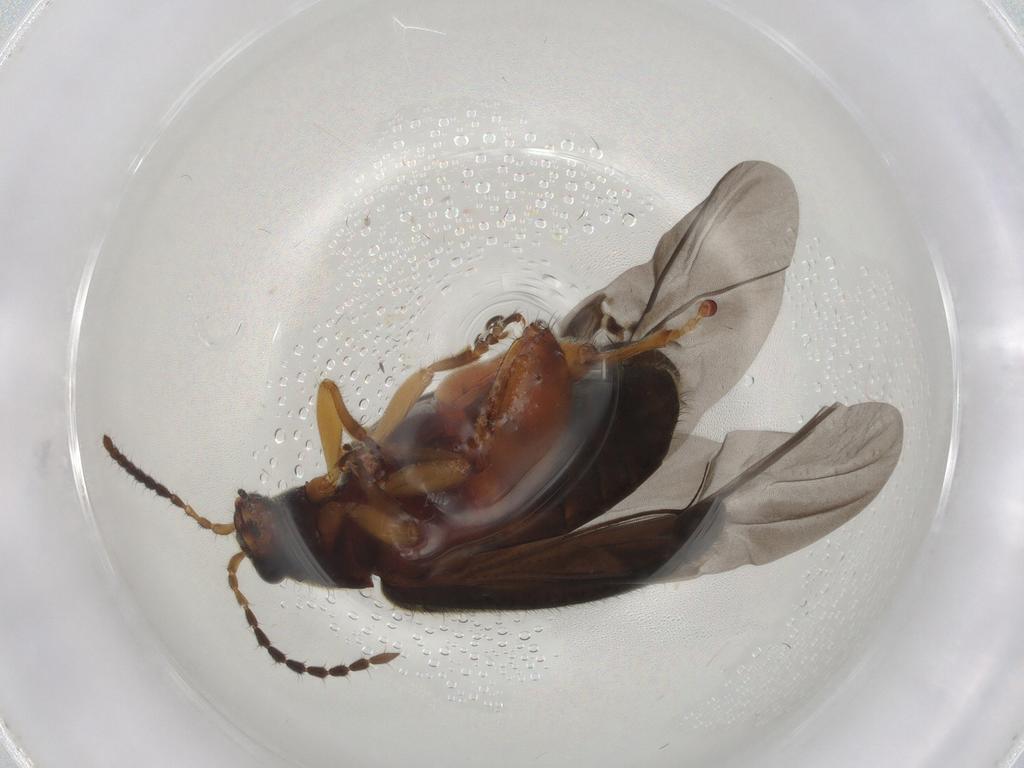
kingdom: Animalia
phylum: Arthropoda
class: Insecta
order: Coleoptera
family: Chrysomelidae
